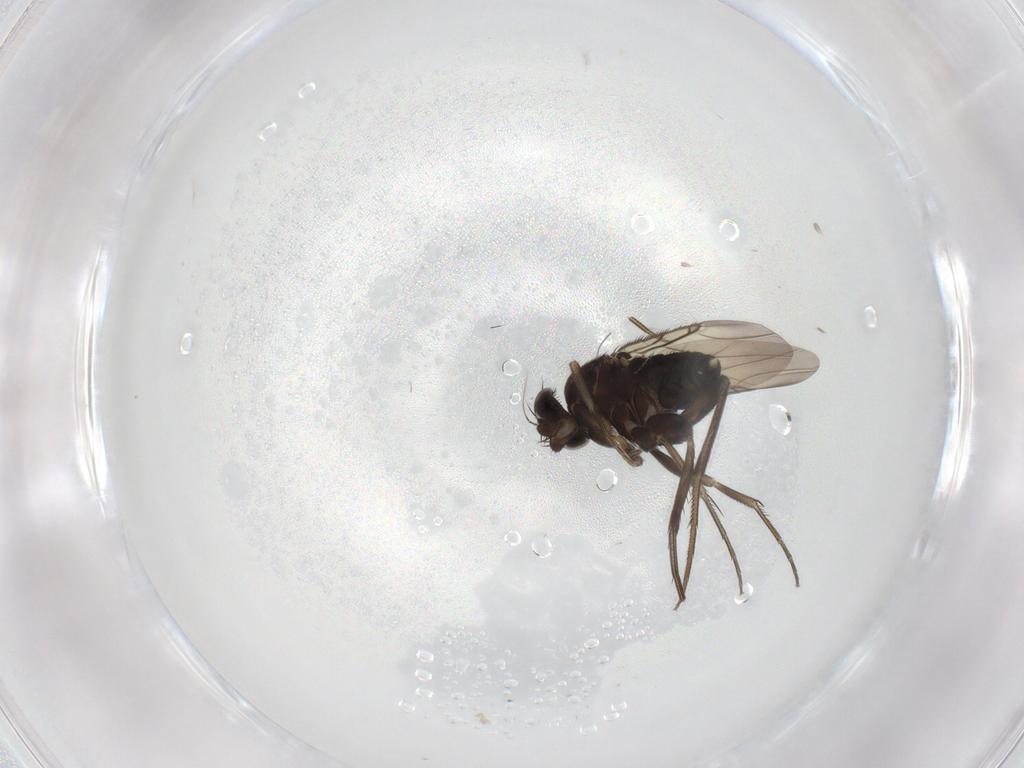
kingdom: Animalia
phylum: Arthropoda
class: Insecta
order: Diptera
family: Phoridae
